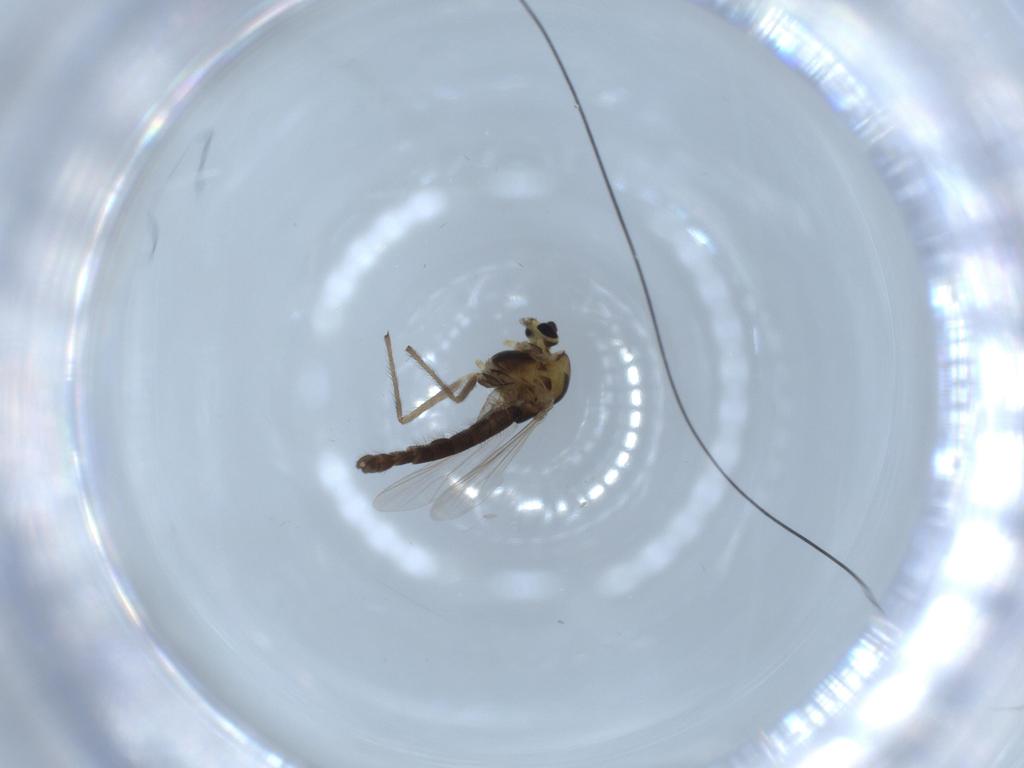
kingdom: Animalia
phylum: Arthropoda
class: Insecta
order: Diptera
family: Chironomidae
